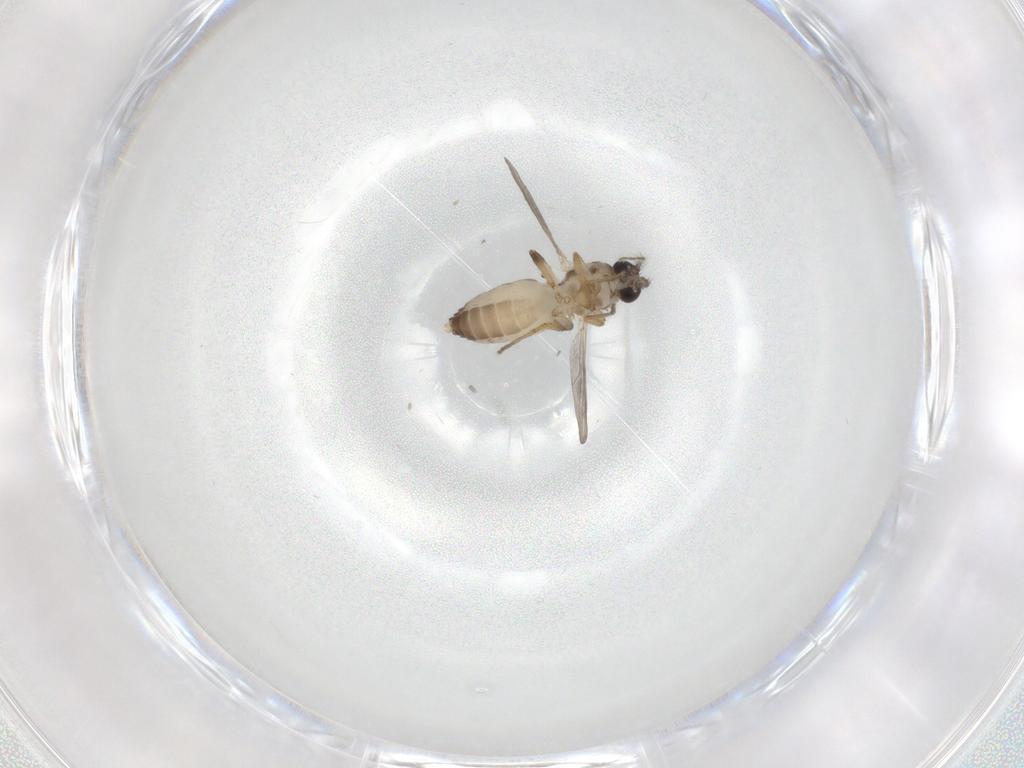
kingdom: Animalia
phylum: Arthropoda
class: Insecta
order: Diptera
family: Ceratopogonidae
